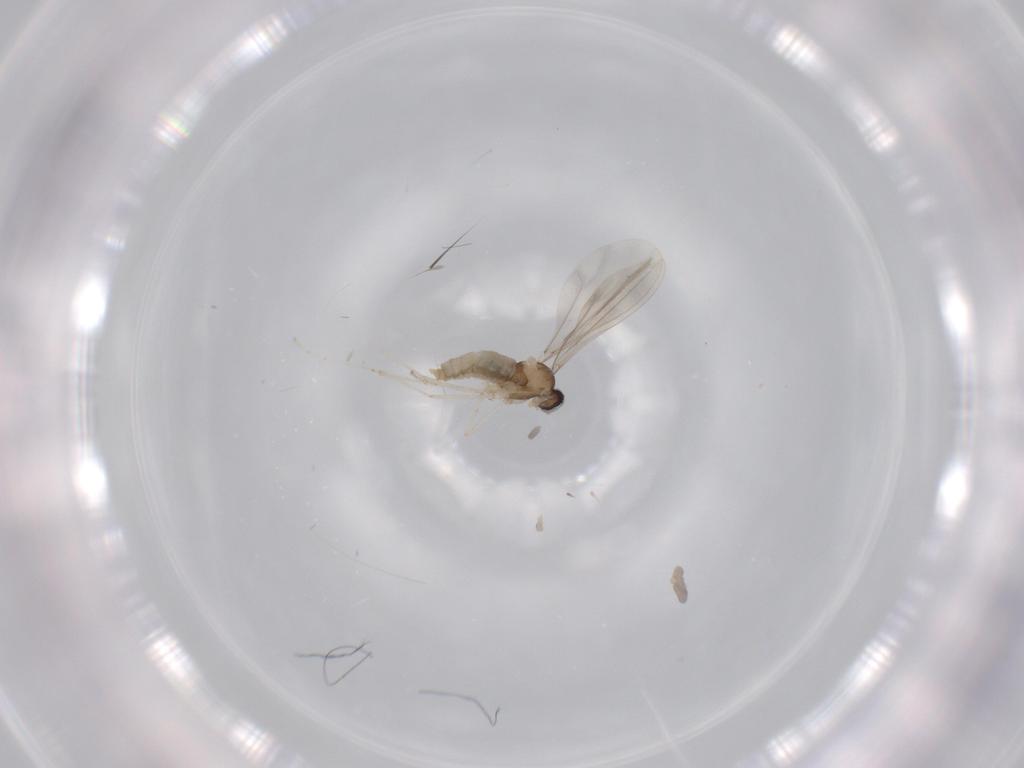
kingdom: Animalia
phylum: Arthropoda
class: Insecta
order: Diptera
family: Milichiidae
